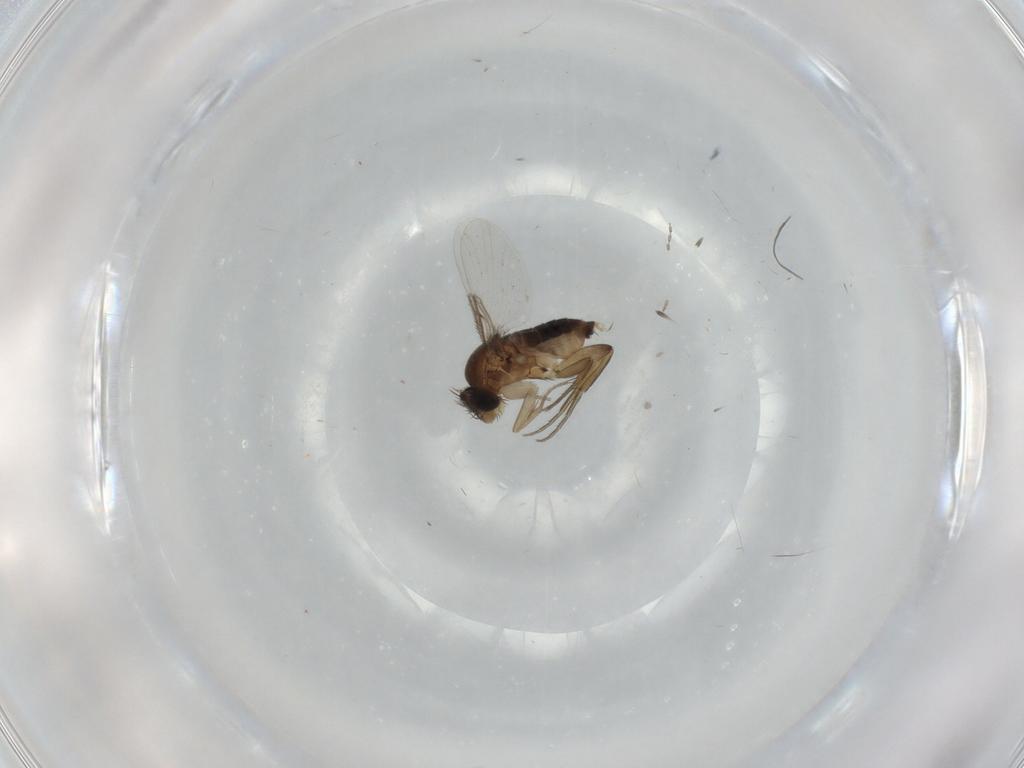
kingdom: Animalia
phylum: Arthropoda
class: Insecta
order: Diptera
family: Phoridae
